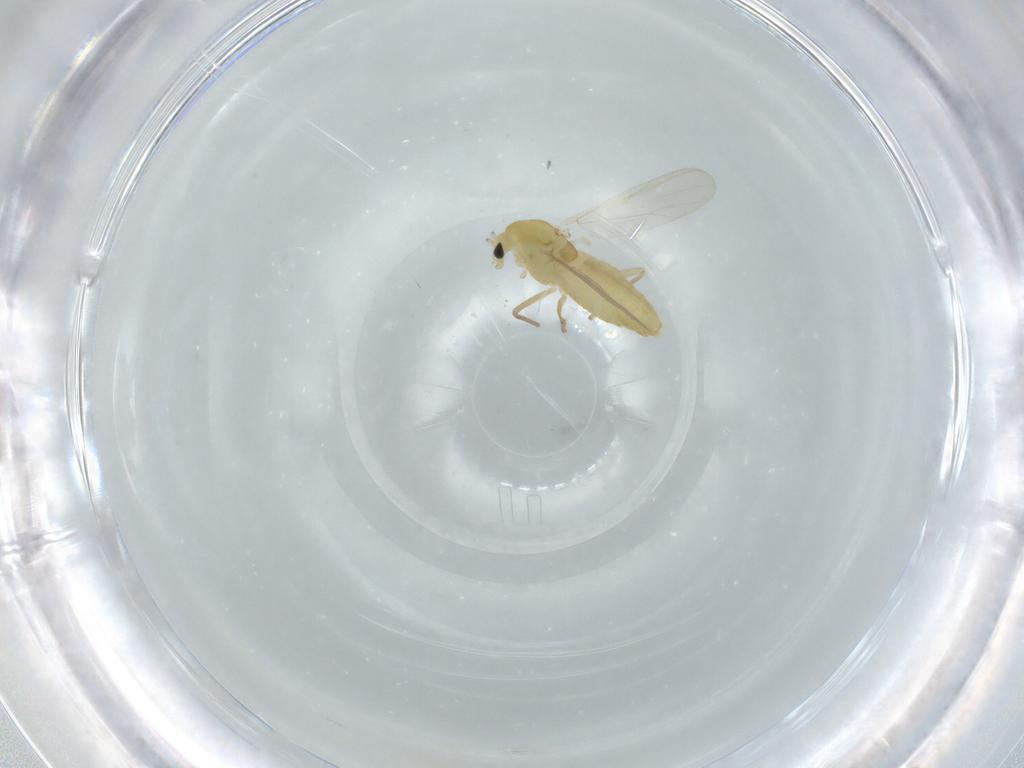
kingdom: Animalia
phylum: Arthropoda
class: Insecta
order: Diptera
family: Chironomidae
